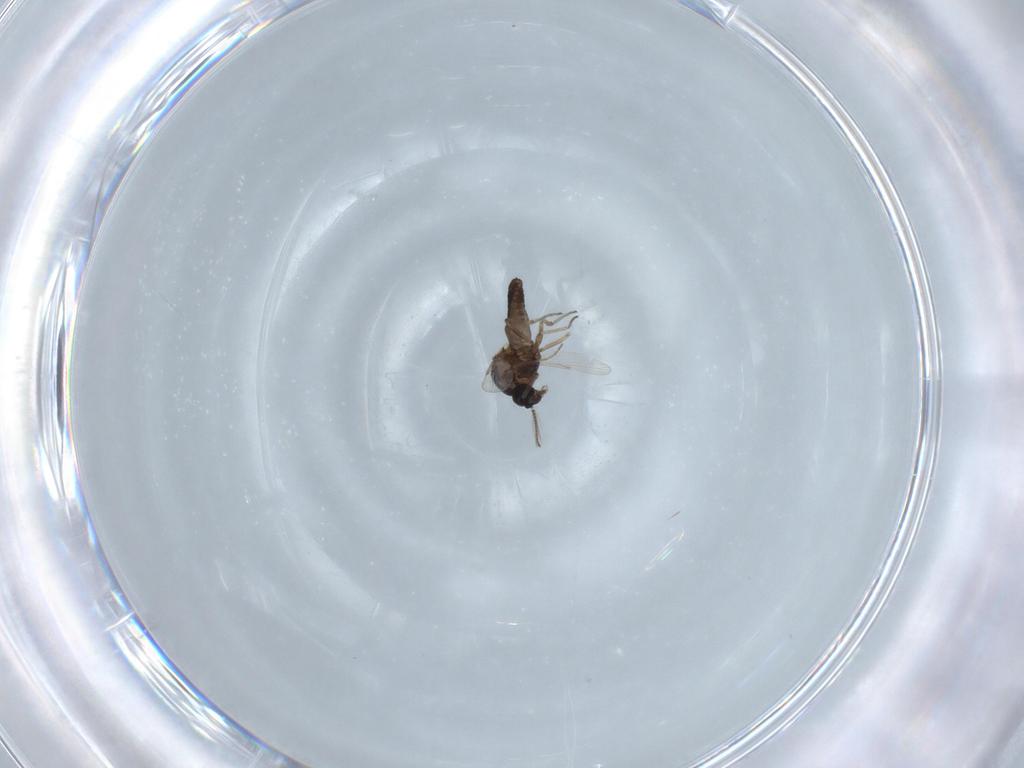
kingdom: Animalia
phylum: Arthropoda
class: Insecta
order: Diptera
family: Ceratopogonidae
